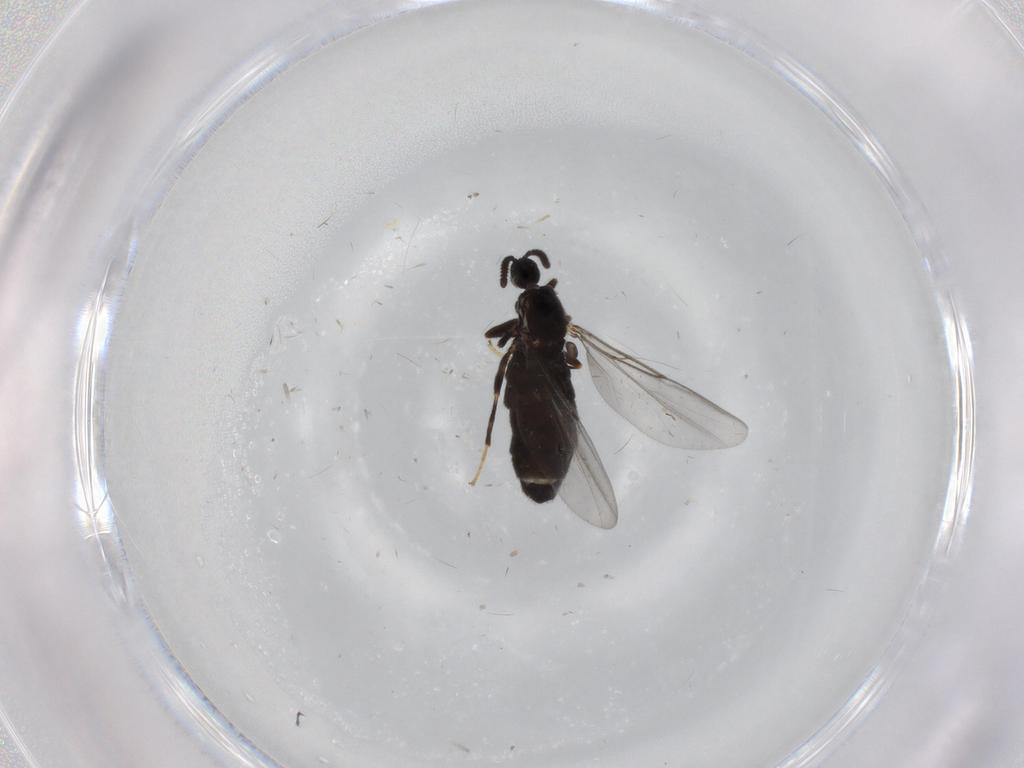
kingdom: Animalia
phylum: Arthropoda
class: Insecta
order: Diptera
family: Scatopsidae
